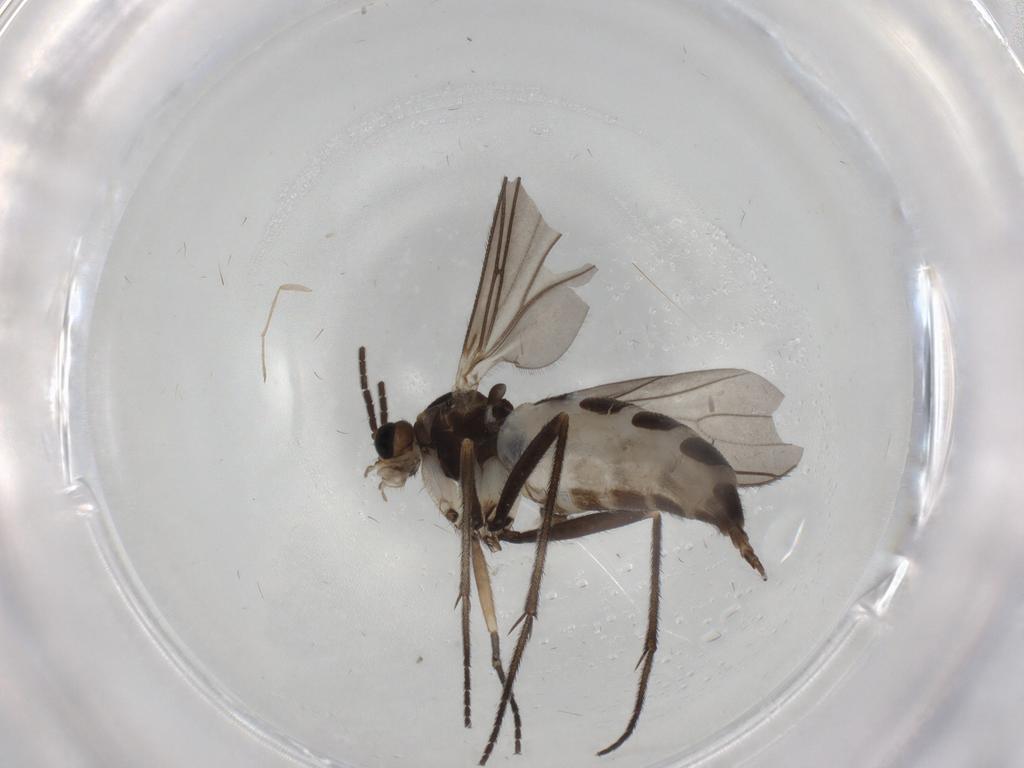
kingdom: Animalia
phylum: Arthropoda
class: Insecta
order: Diptera
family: Sciaridae
